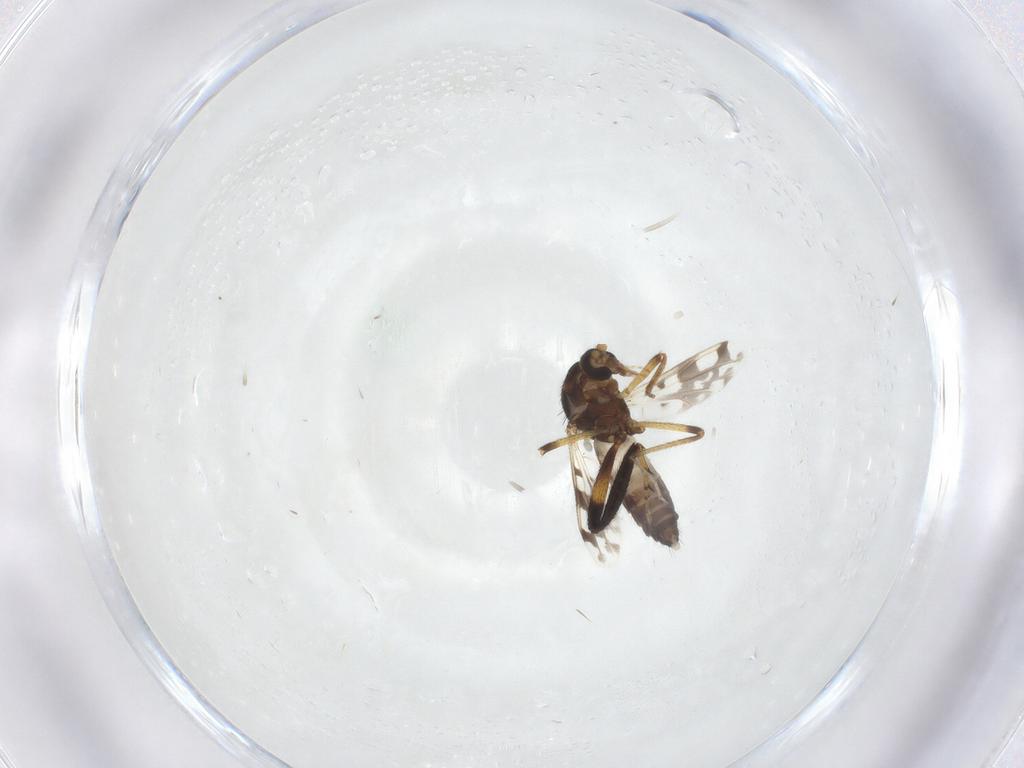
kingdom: Animalia
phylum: Arthropoda
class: Insecta
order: Diptera
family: Ceratopogonidae
